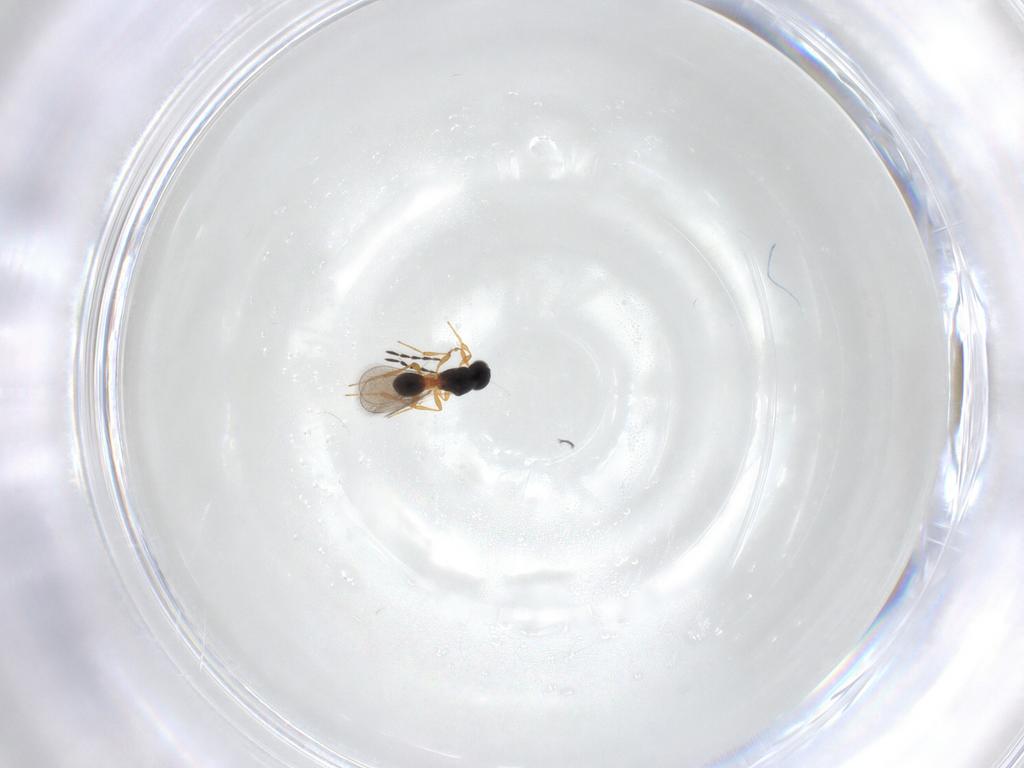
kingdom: Animalia
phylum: Arthropoda
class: Insecta
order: Hymenoptera
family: Platygastridae
